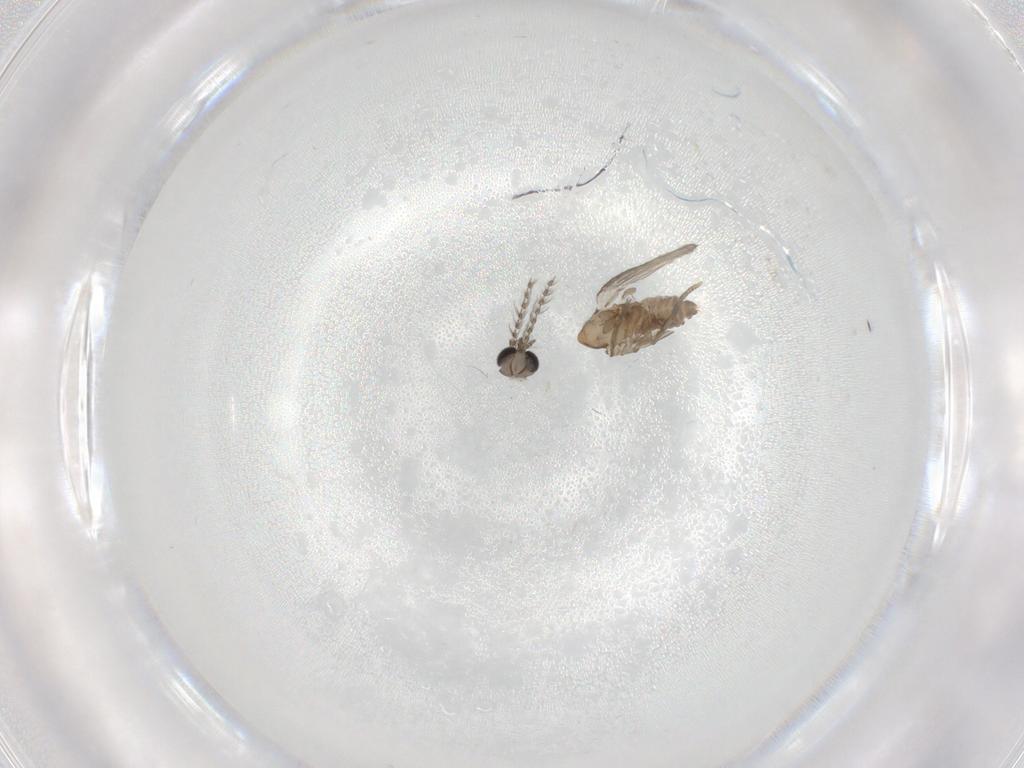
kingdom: Animalia
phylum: Arthropoda
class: Insecta
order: Diptera
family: Psychodidae
